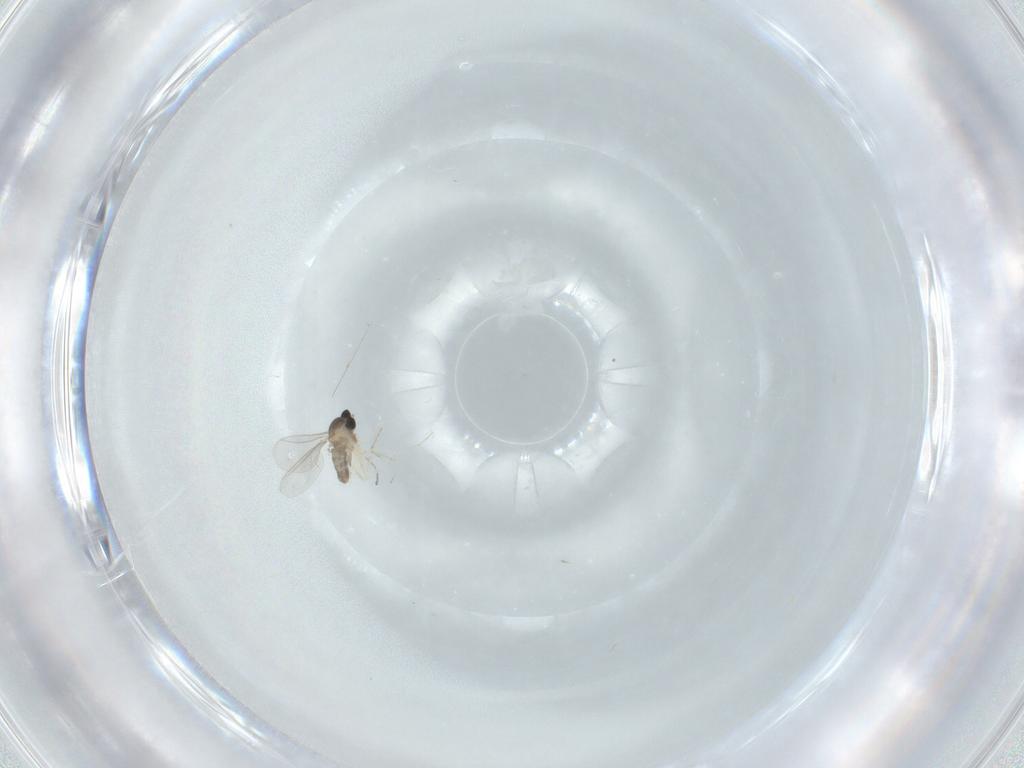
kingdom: Animalia
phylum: Arthropoda
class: Insecta
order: Diptera
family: Cecidomyiidae
